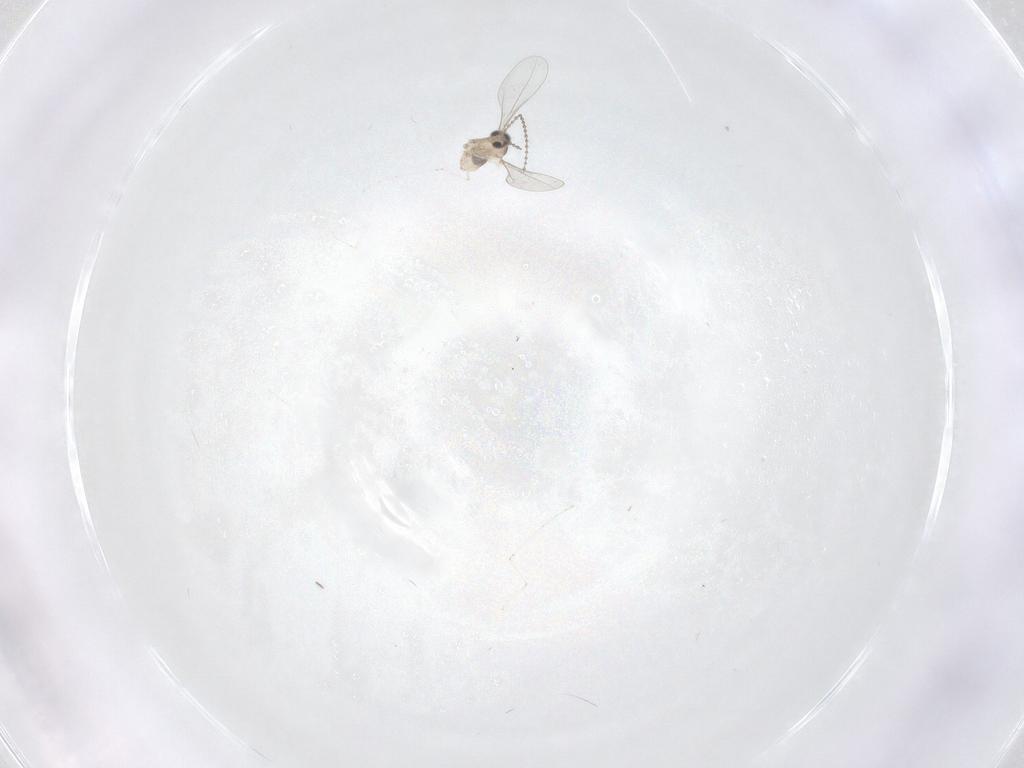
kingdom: Animalia
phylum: Arthropoda
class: Insecta
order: Diptera
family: Cecidomyiidae
